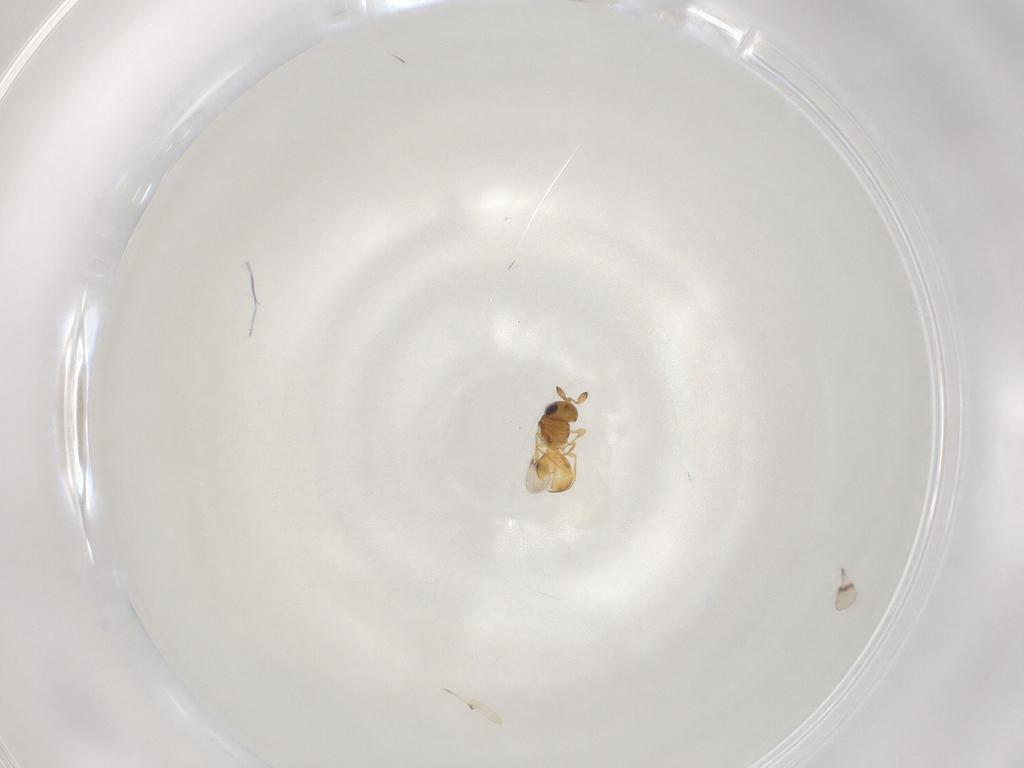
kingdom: Animalia
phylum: Arthropoda
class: Insecta
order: Hymenoptera
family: Scelionidae
